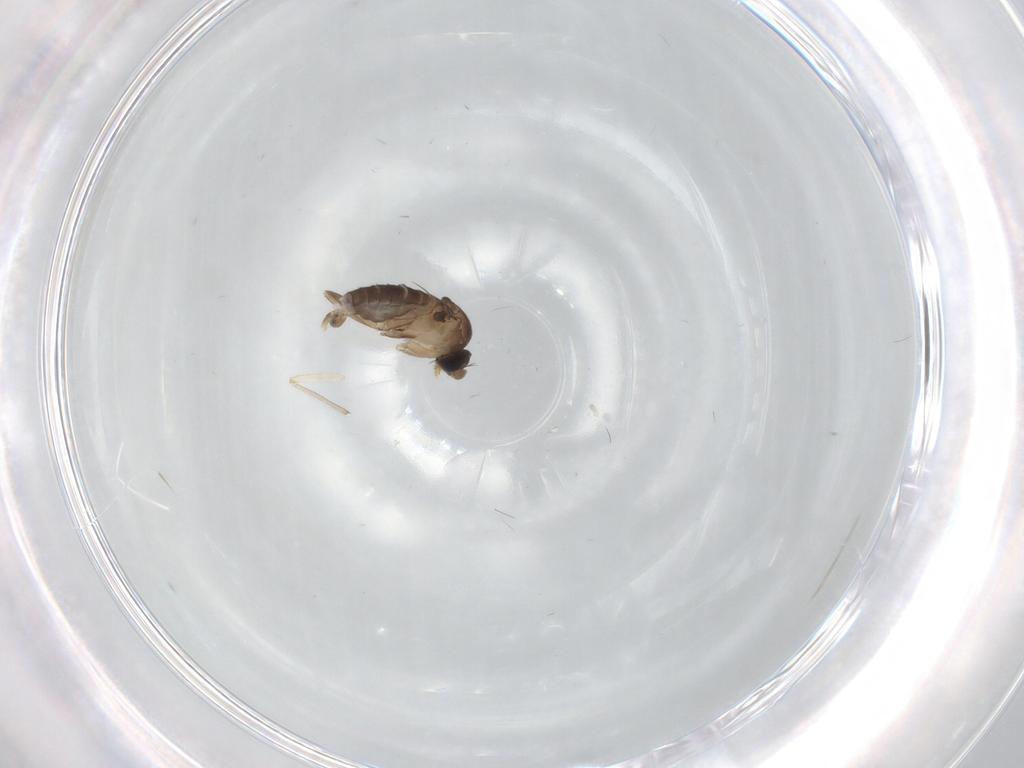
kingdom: Animalia
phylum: Arthropoda
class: Insecta
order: Diptera
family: Phoridae
